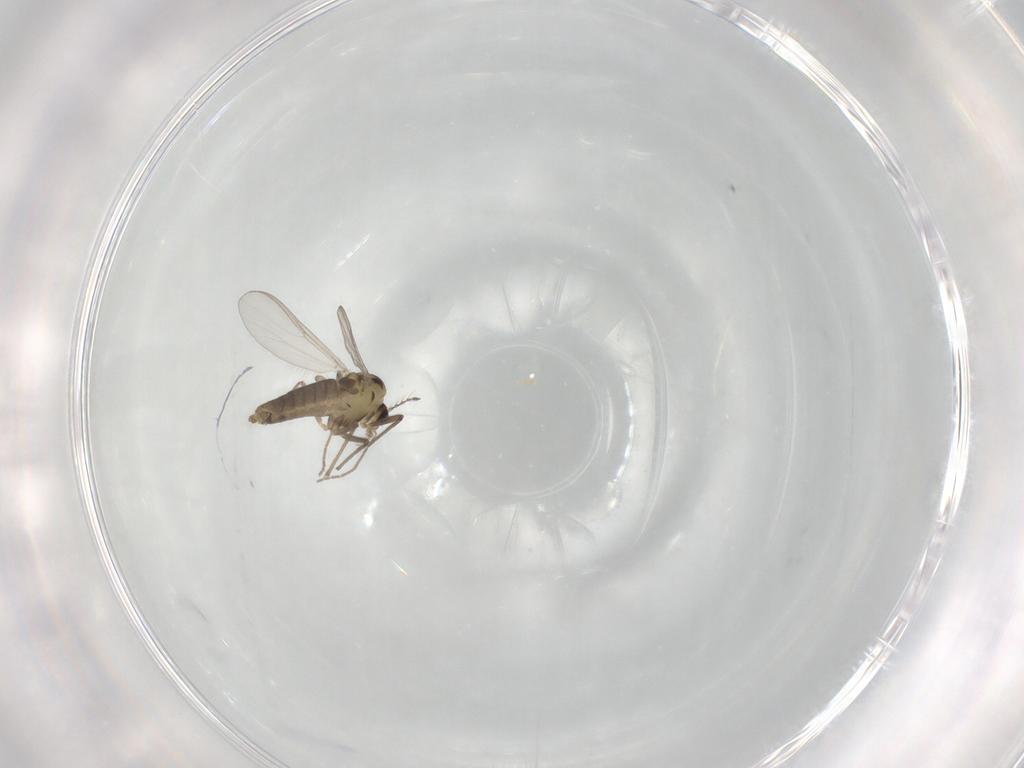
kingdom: Animalia
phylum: Arthropoda
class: Insecta
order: Diptera
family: Chironomidae
